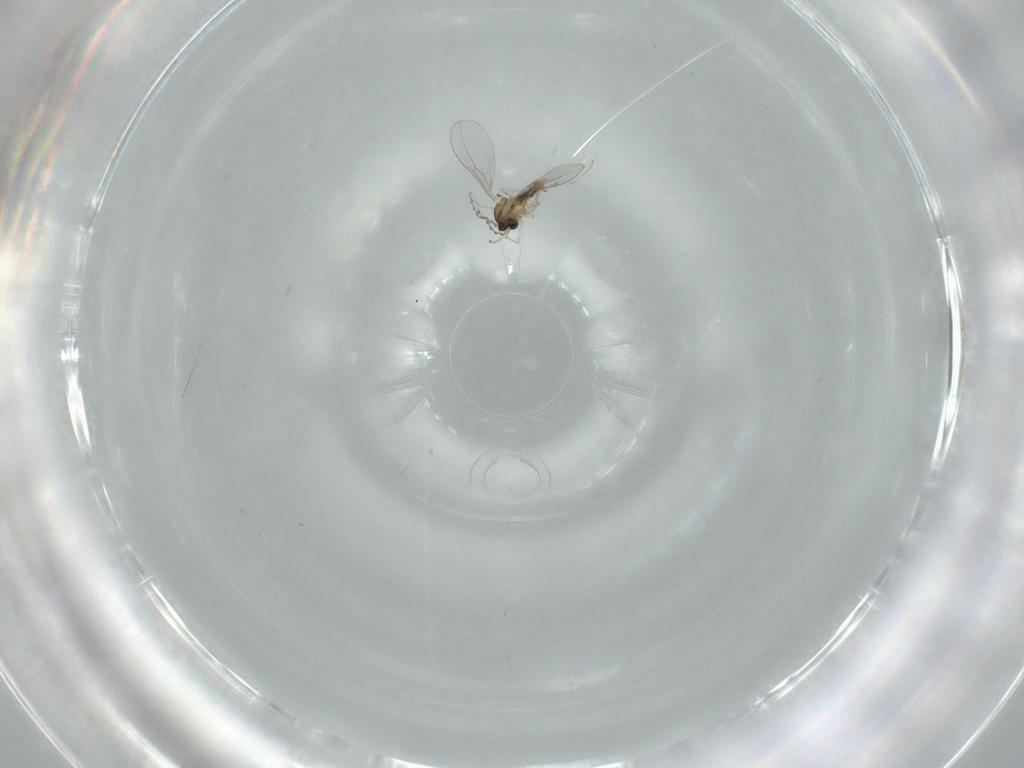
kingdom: Animalia
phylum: Arthropoda
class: Insecta
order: Diptera
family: Cecidomyiidae
